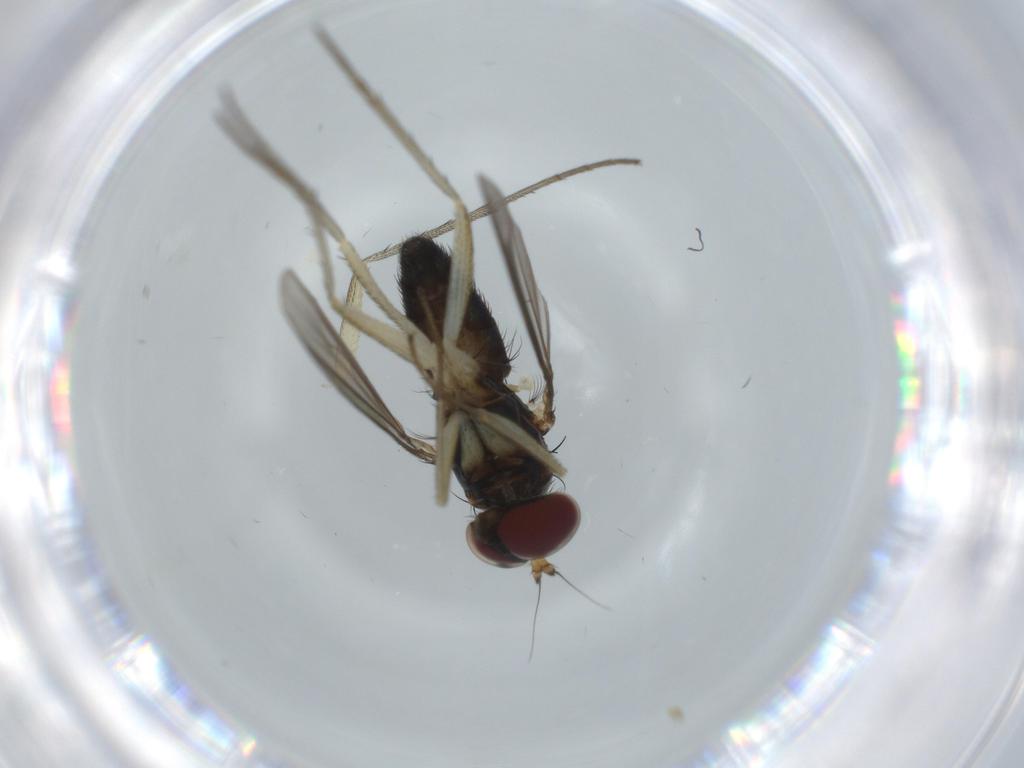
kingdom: Animalia
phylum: Arthropoda
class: Insecta
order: Diptera
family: Dolichopodidae
